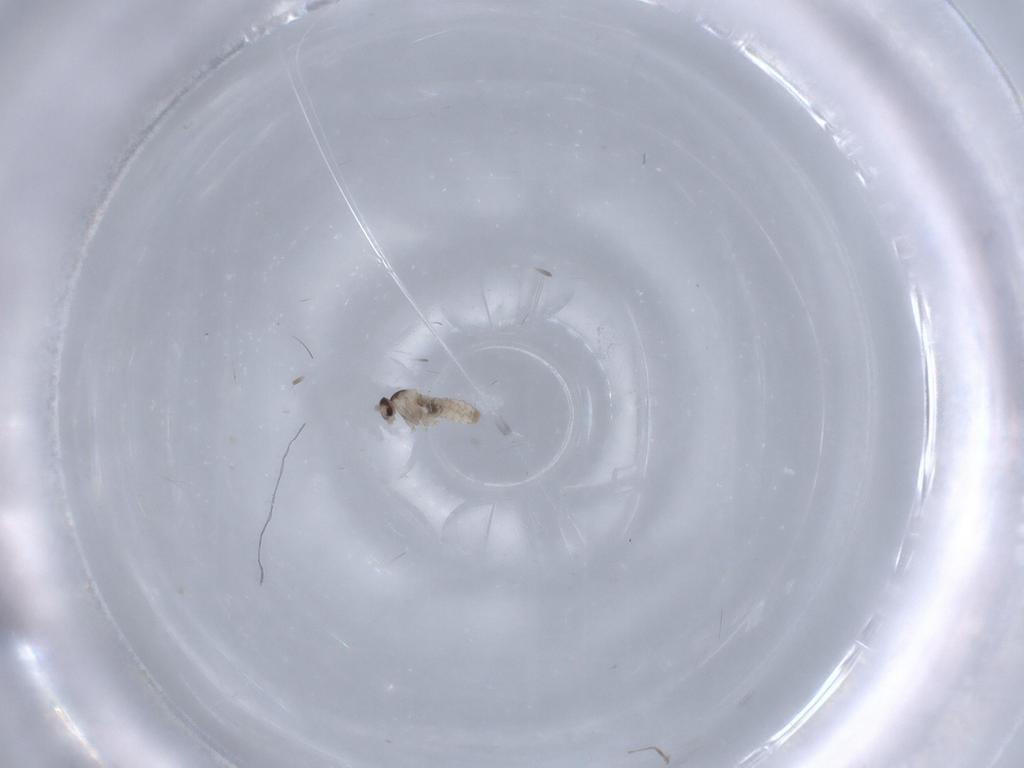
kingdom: Animalia
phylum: Arthropoda
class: Insecta
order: Diptera
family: Cecidomyiidae
